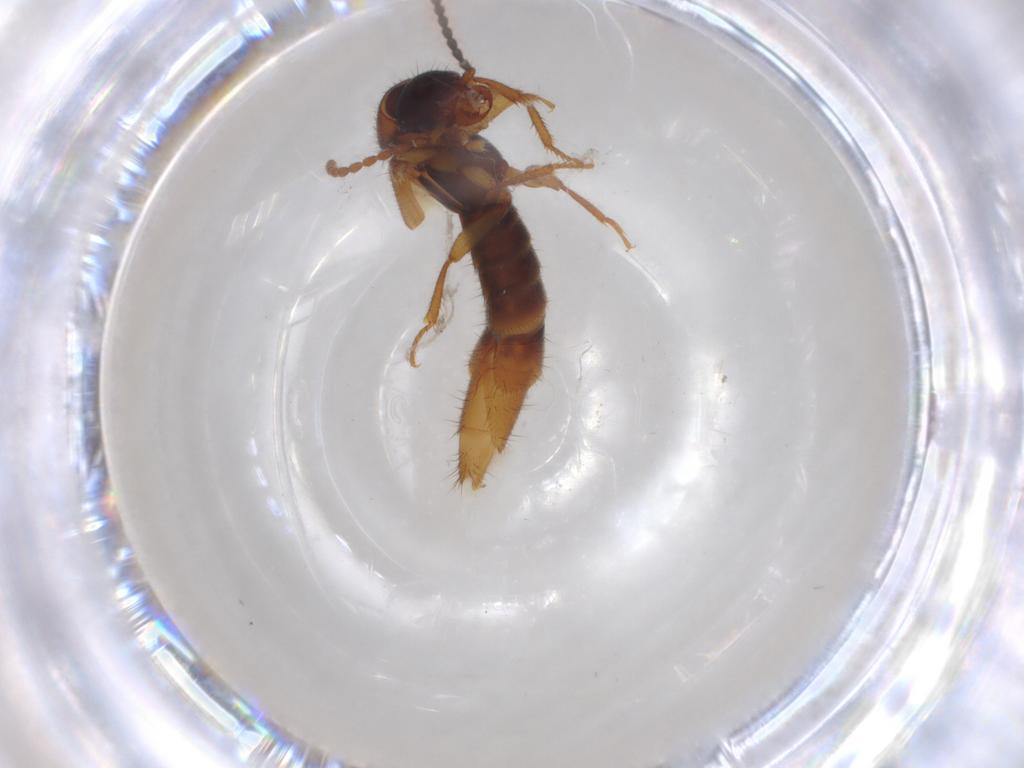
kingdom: Animalia
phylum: Arthropoda
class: Insecta
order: Coleoptera
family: Staphylinidae
